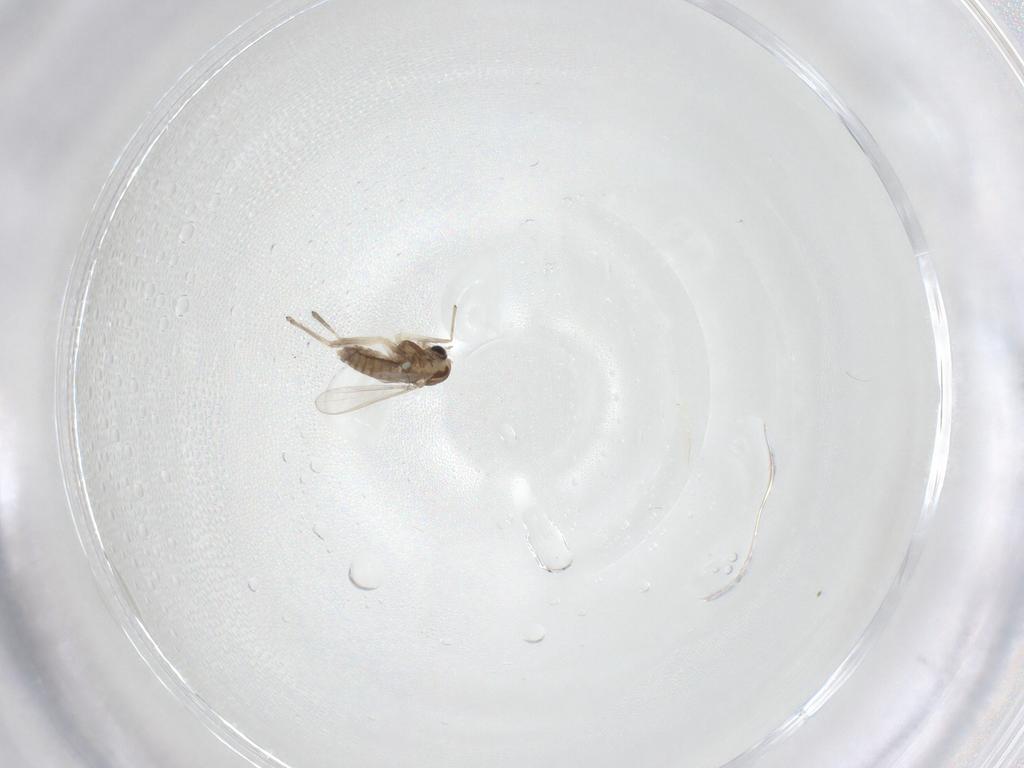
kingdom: Animalia
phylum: Arthropoda
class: Insecta
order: Diptera
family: Chironomidae
